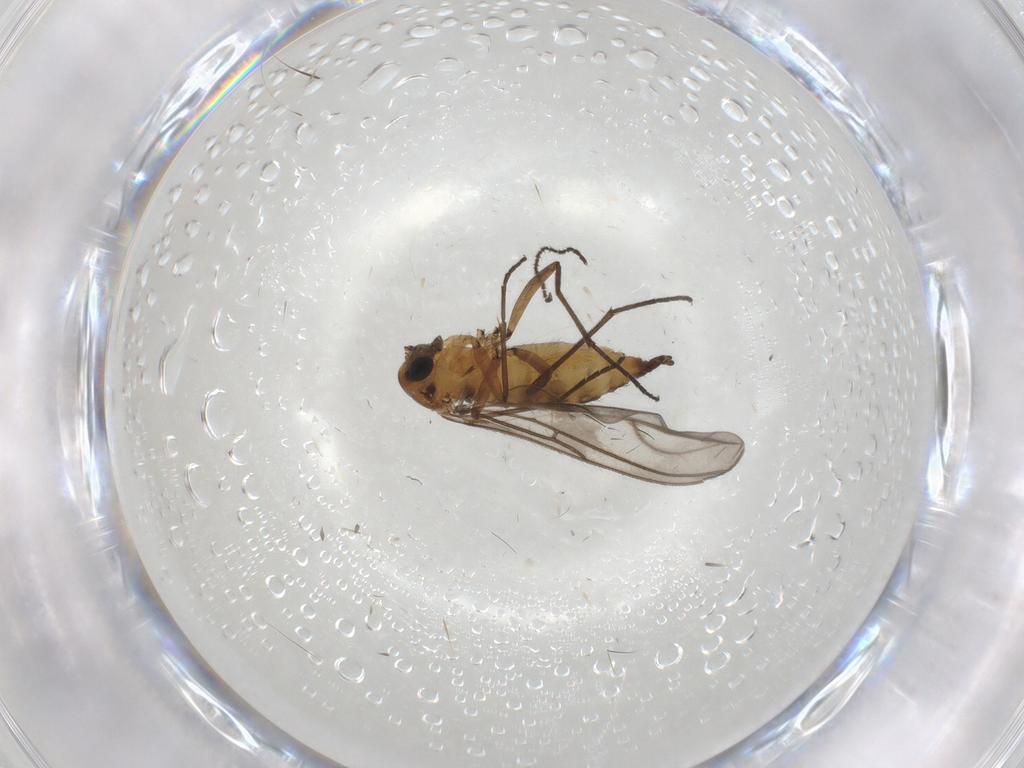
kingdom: Animalia
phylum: Arthropoda
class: Insecta
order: Diptera
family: Sciaridae
